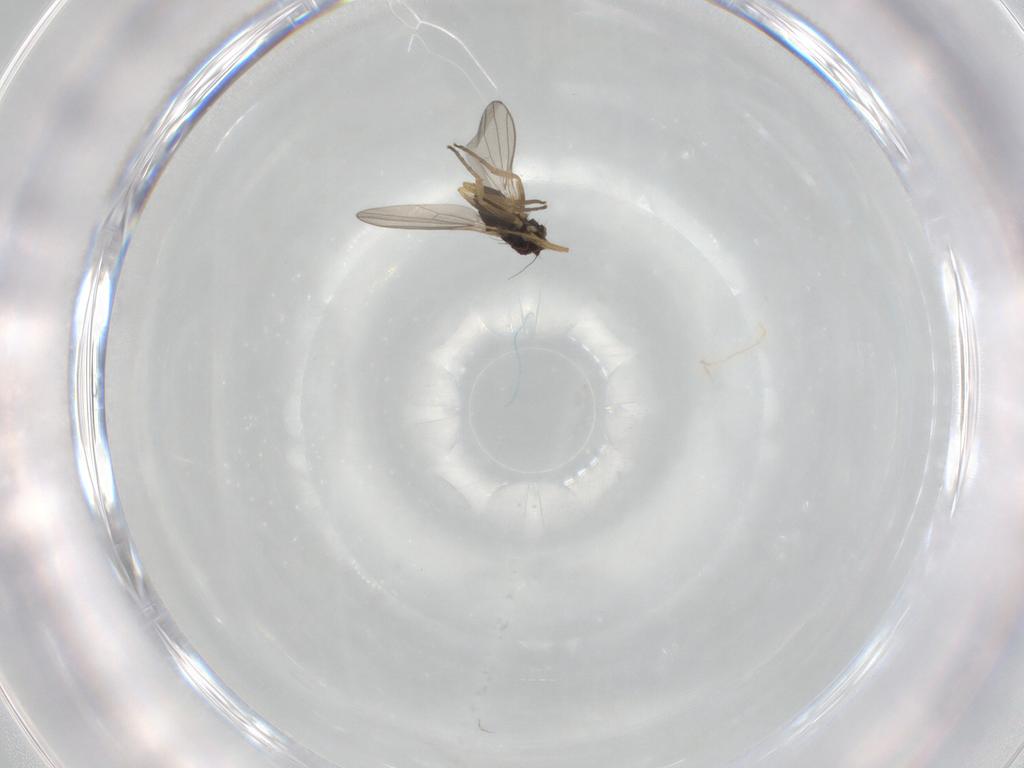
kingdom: Animalia
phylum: Arthropoda
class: Insecta
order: Diptera
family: Dolichopodidae
